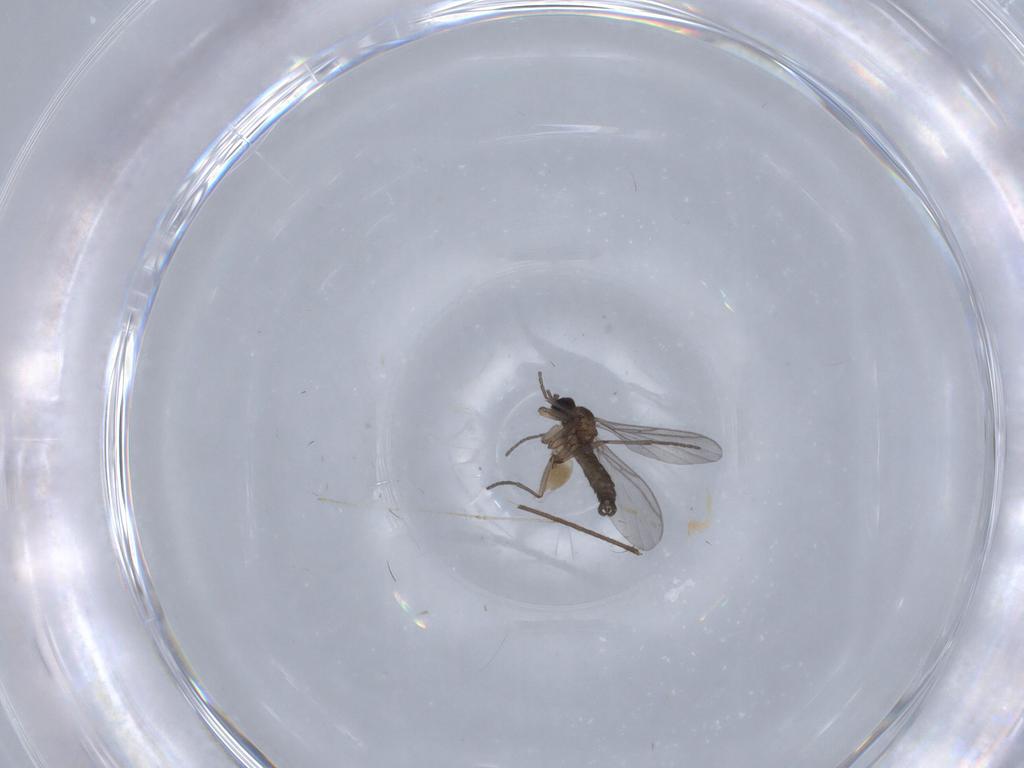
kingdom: Animalia
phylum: Arthropoda
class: Insecta
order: Diptera
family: Cecidomyiidae
